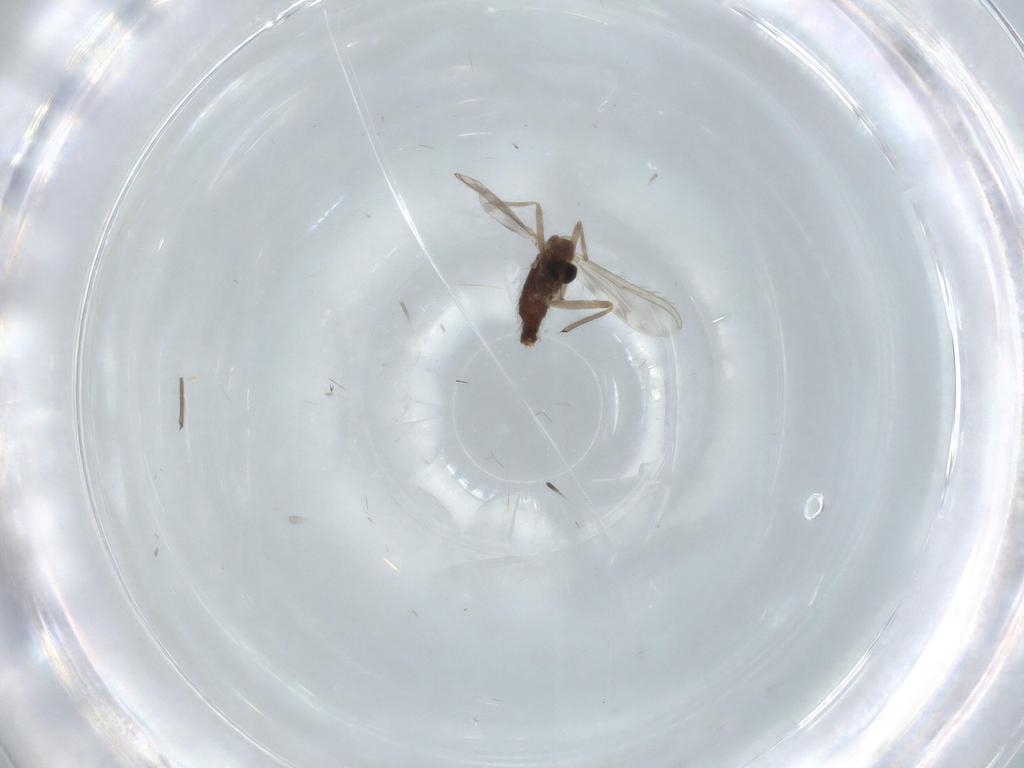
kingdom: Animalia
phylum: Arthropoda
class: Insecta
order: Diptera
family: Chironomidae
